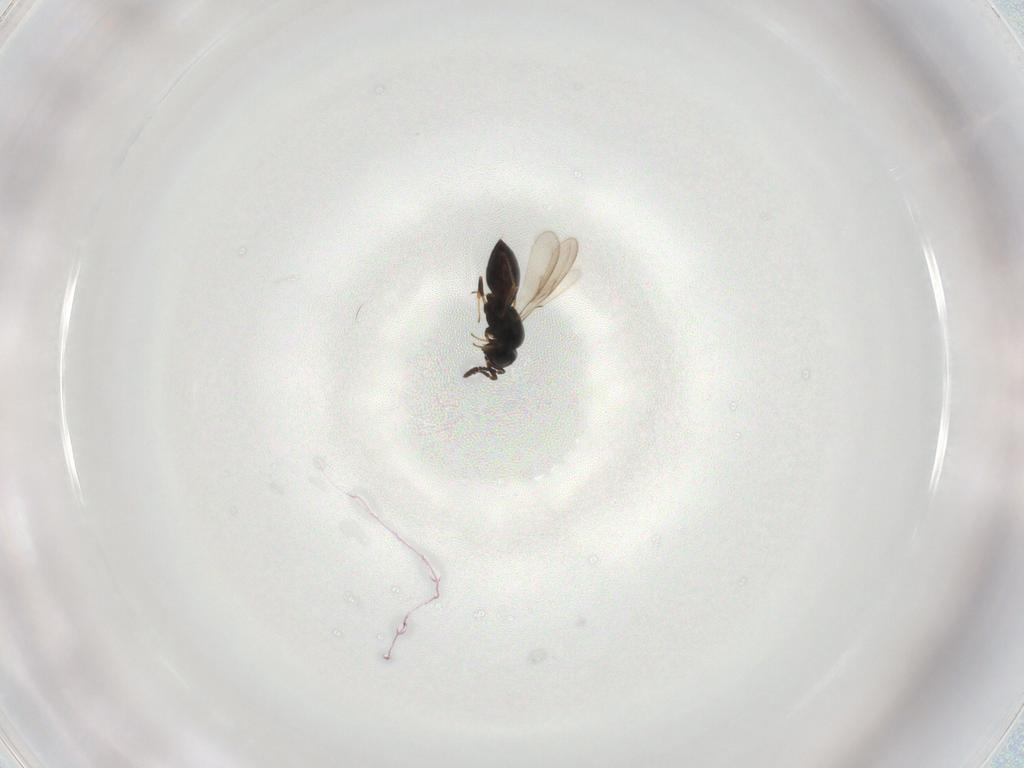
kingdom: Animalia
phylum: Arthropoda
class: Insecta
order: Hymenoptera
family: Scelionidae
